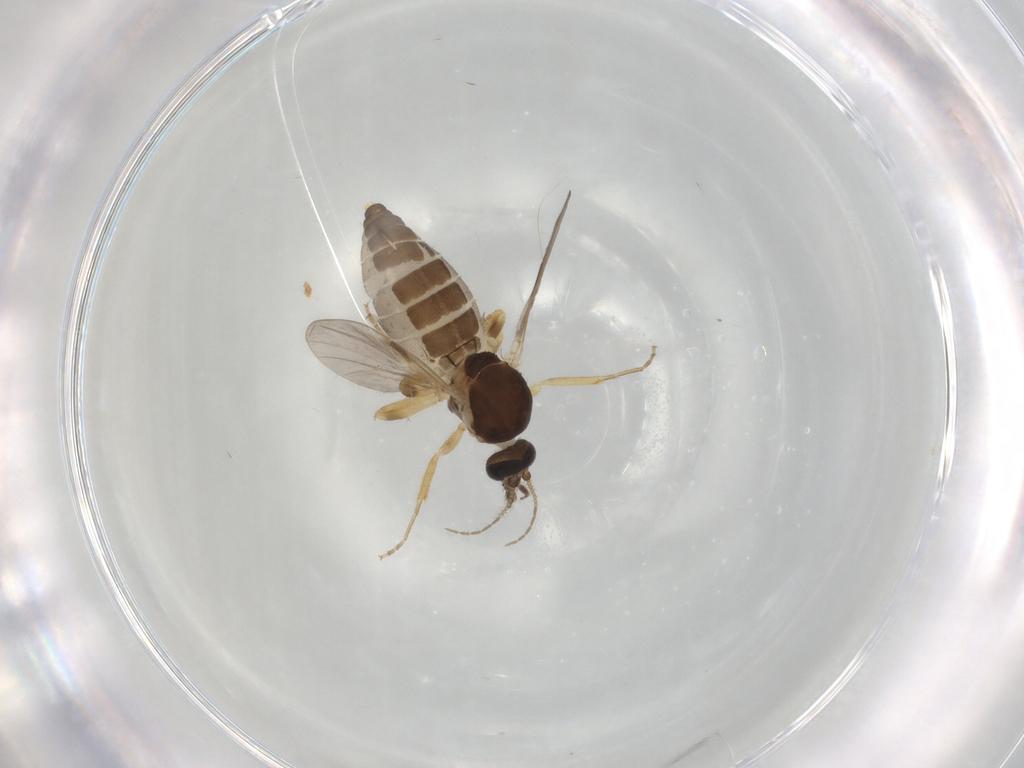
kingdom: Animalia
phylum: Arthropoda
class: Insecta
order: Diptera
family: Ceratopogonidae
